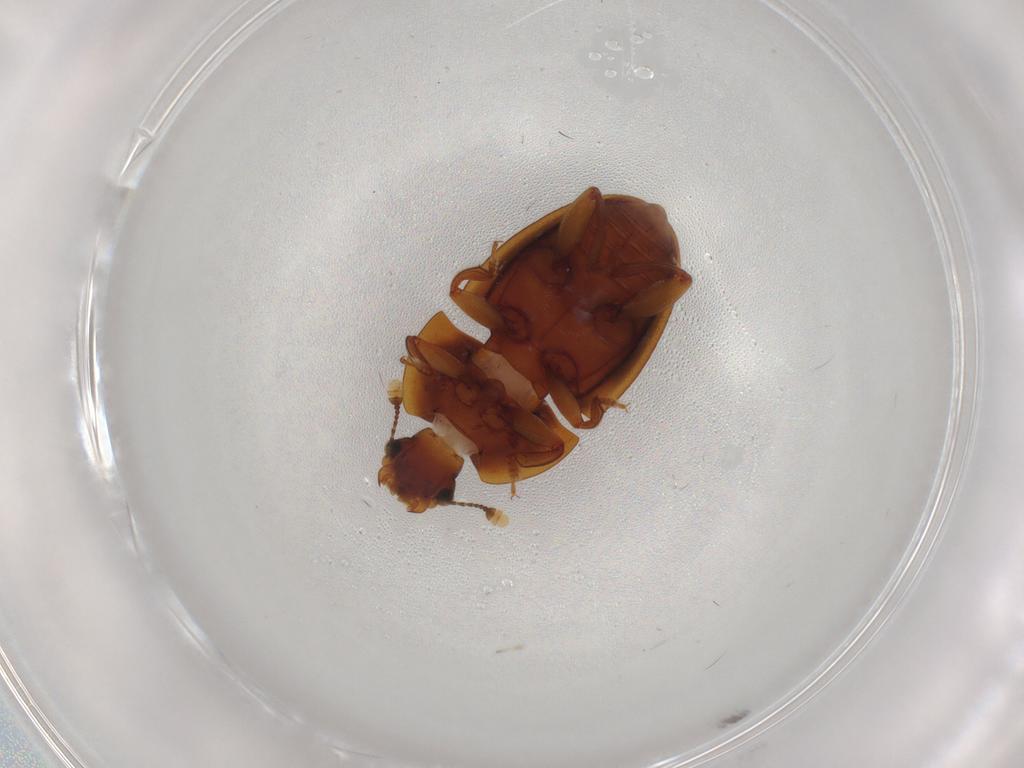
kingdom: Animalia
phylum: Arthropoda
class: Insecta
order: Coleoptera
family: Nitidulidae
